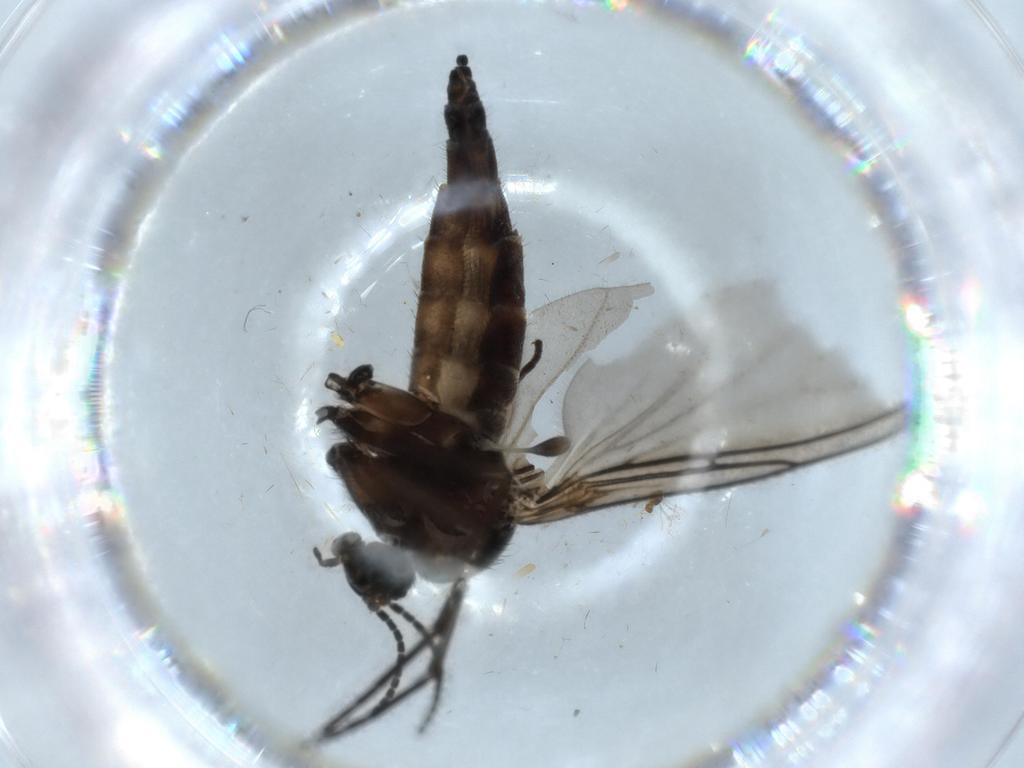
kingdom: Animalia
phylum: Arthropoda
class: Insecta
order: Diptera
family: Sciaridae
